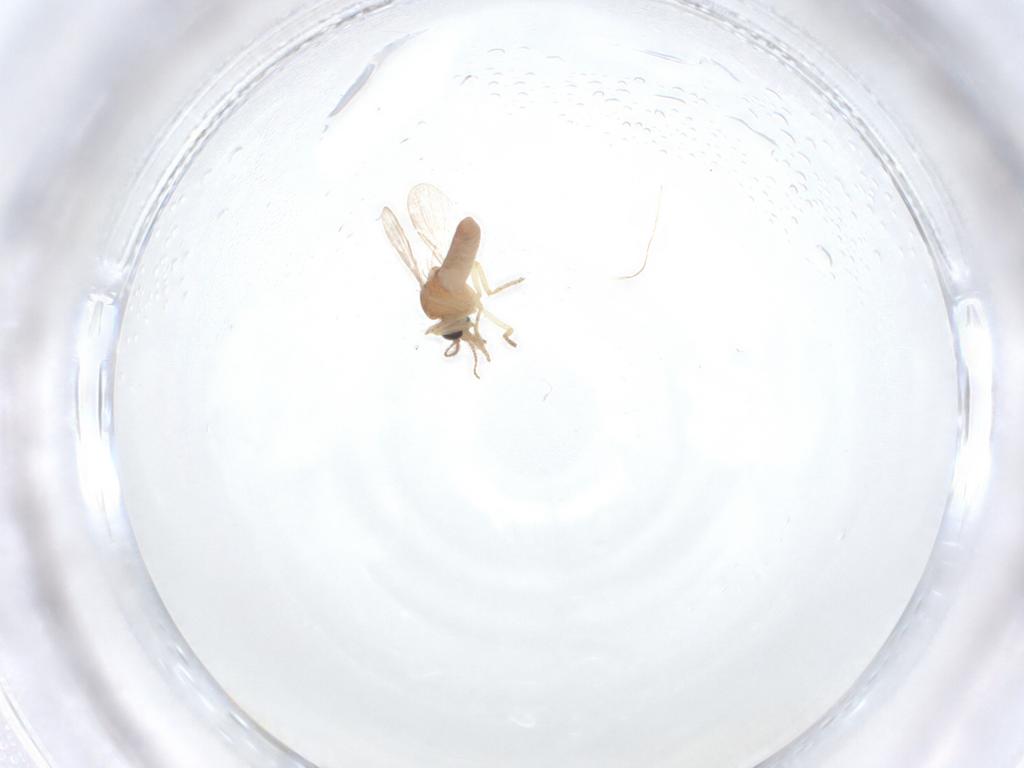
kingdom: Animalia
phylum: Arthropoda
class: Insecta
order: Diptera
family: Ceratopogonidae
